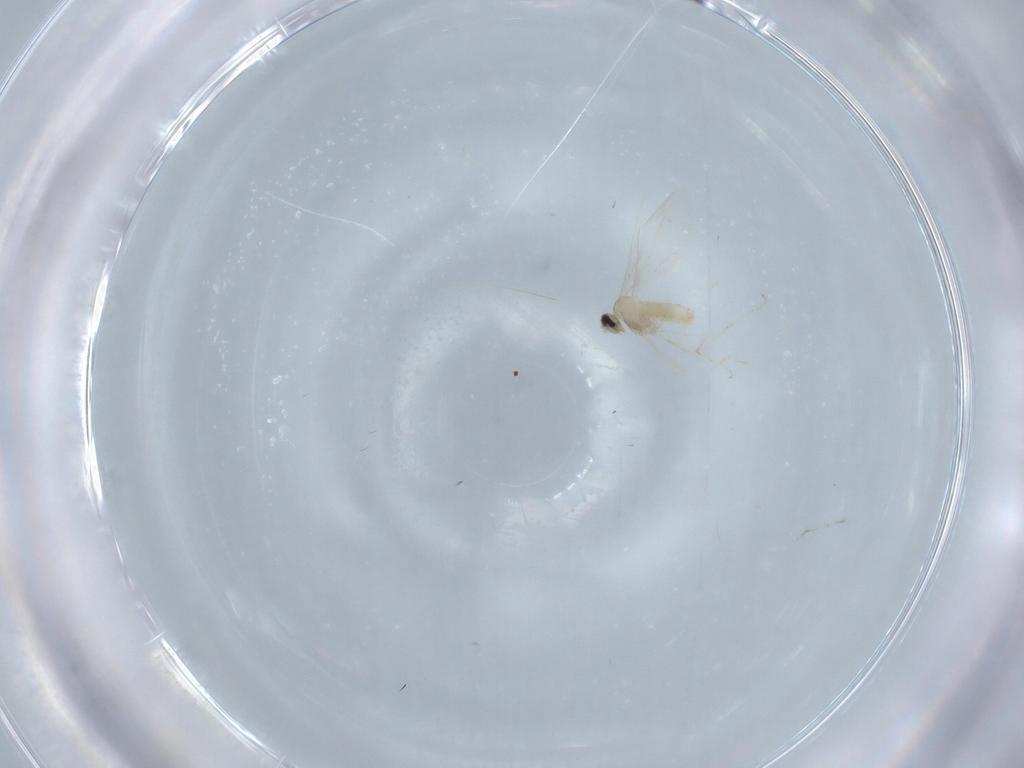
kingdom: Animalia
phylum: Arthropoda
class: Insecta
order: Diptera
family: Cecidomyiidae
